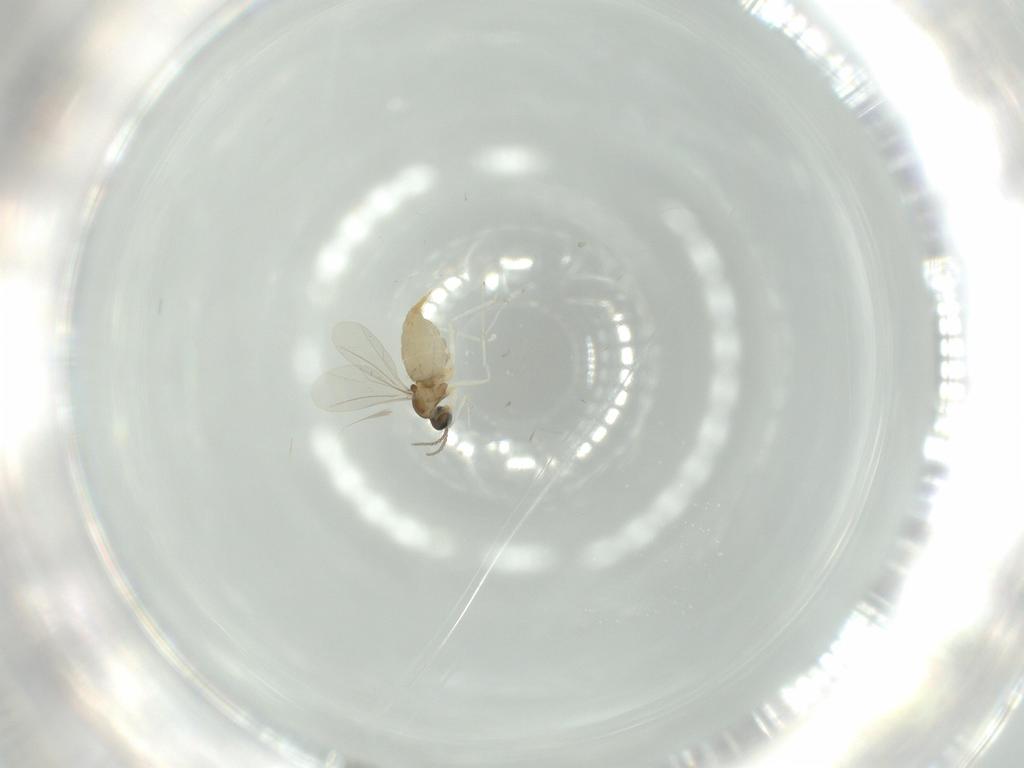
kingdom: Animalia
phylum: Arthropoda
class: Insecta
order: Diptera
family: Cecidomyiidae
